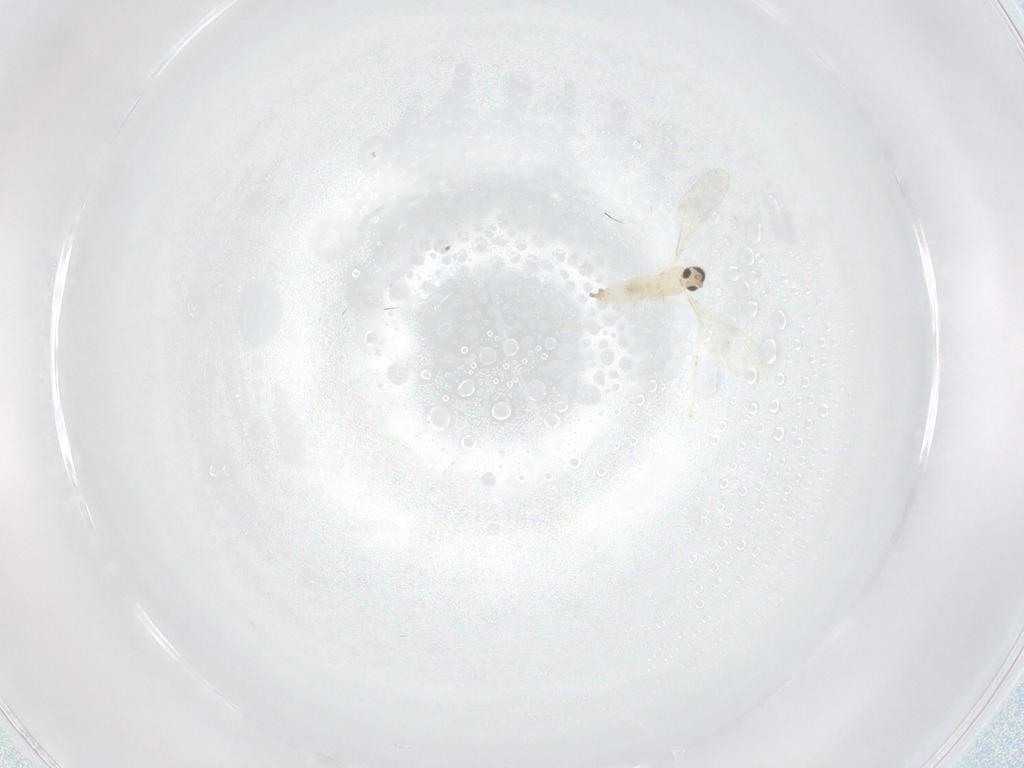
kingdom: Animalia
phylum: Arthropoda
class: Insecta
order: Diptera
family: Cecidomyiidae
